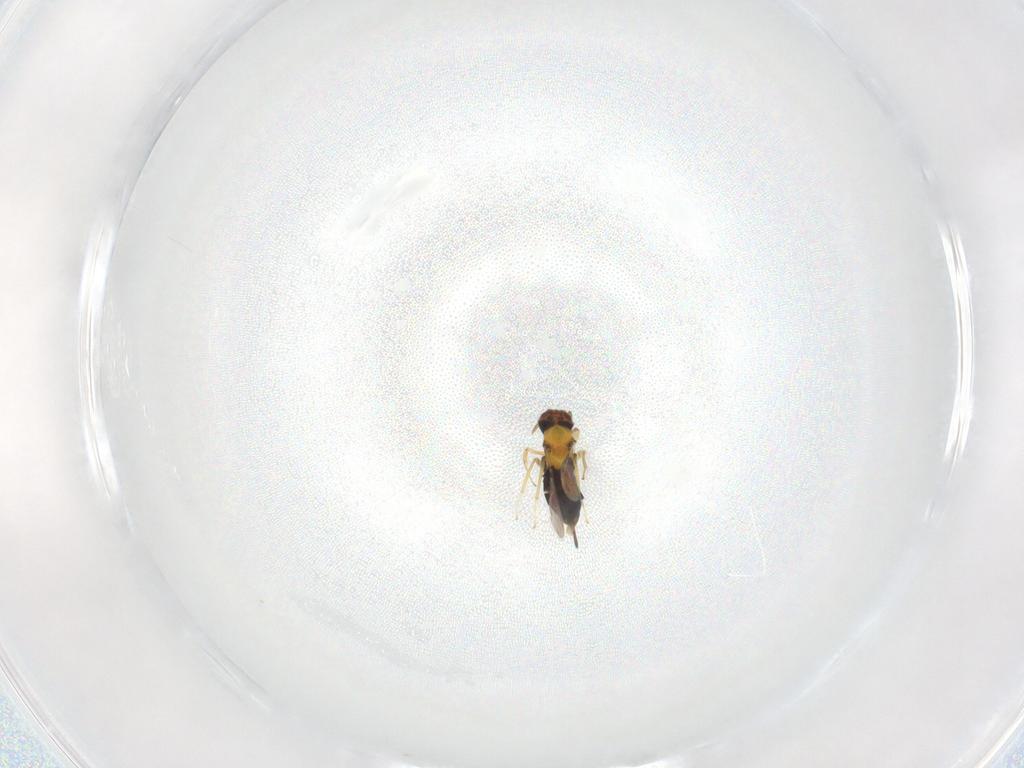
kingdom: Animalia
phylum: Arthropoda
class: Insecta
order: Hymenoptera
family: Aphelinidae
